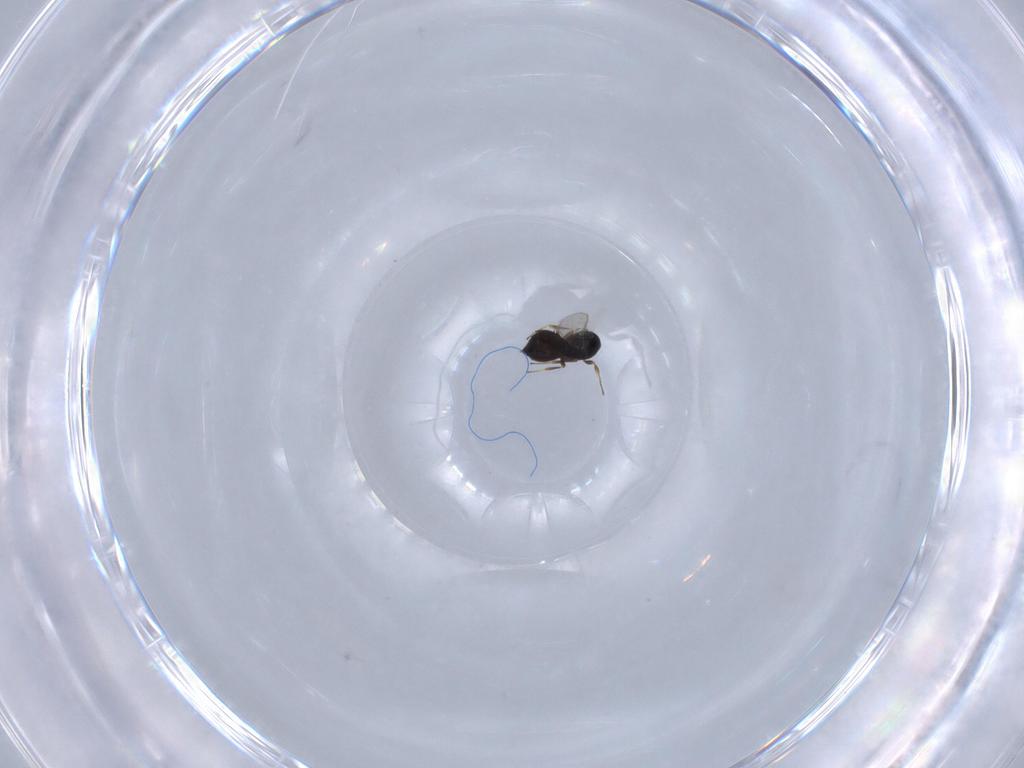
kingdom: Animalia
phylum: Arthropoda
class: Insecta
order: Hymenoptera
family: Scelionidae
